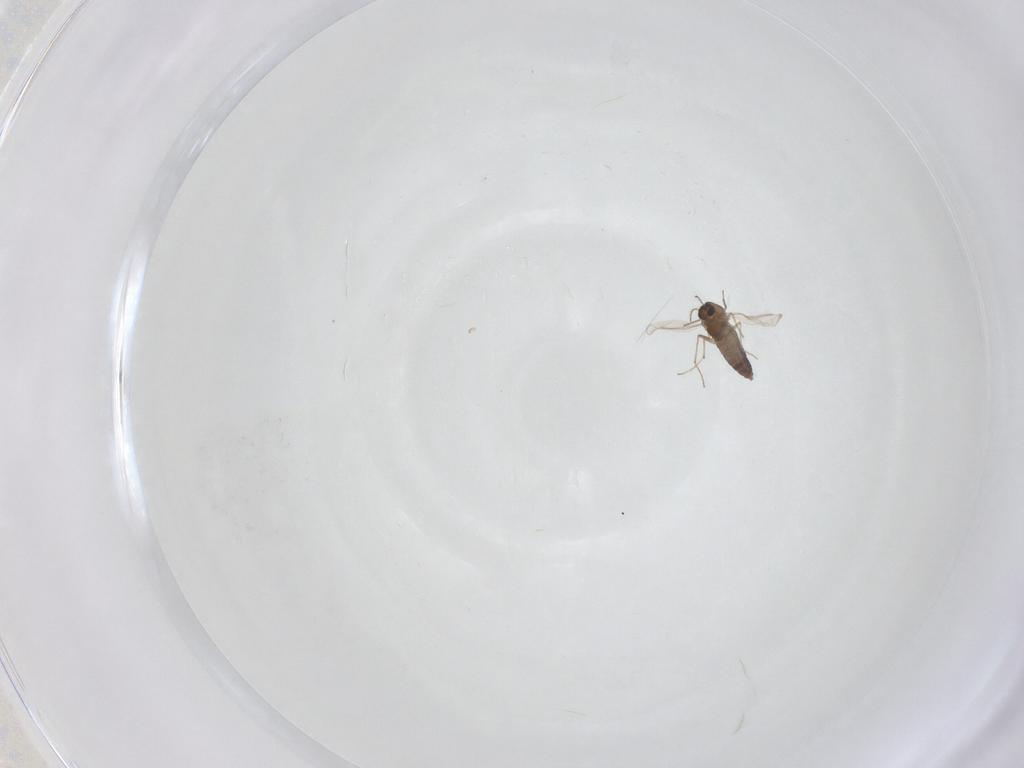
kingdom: Animalia
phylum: Arthropoda
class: Insecta
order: Diptera
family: Chironomidae
